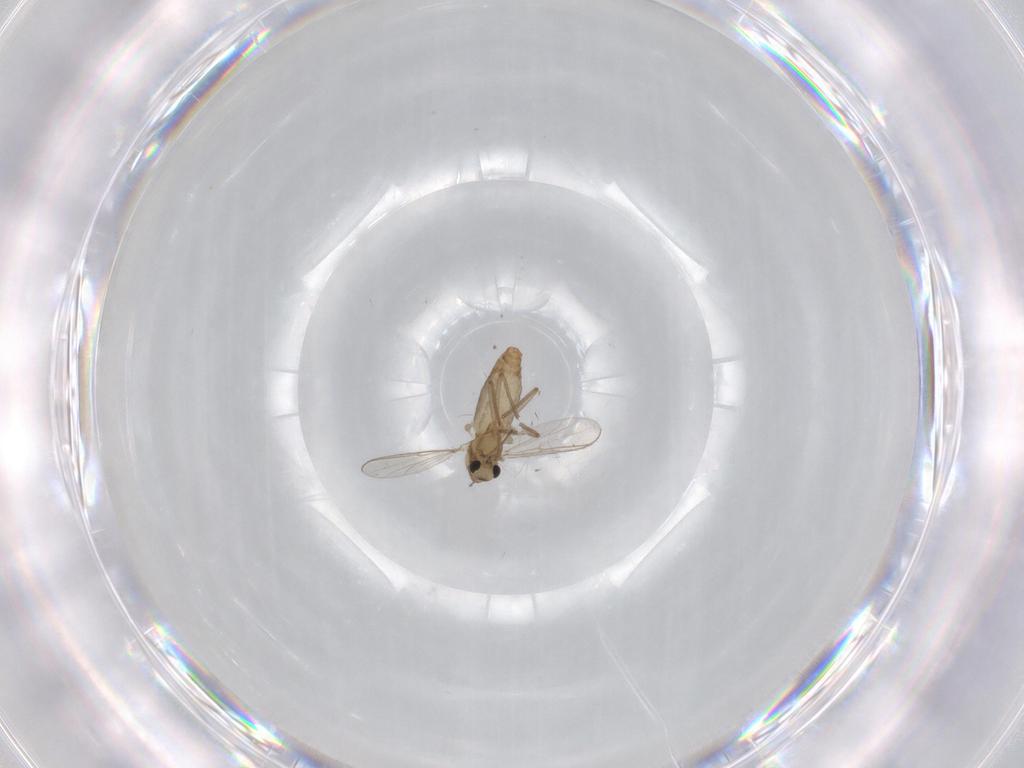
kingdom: Animalia
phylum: Arthropoda
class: Insecta
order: Diptera
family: Chironomidae
